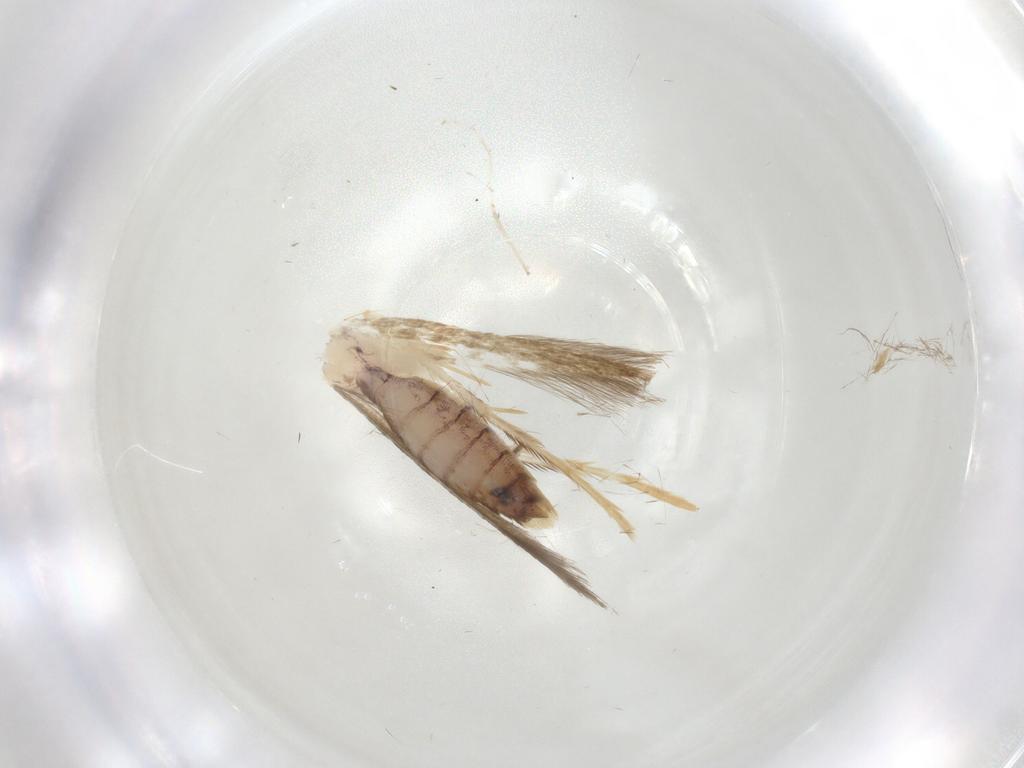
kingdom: Animalia
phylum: Arthropoda
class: Insecta
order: Lepidoptera
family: Lyonetiidae
